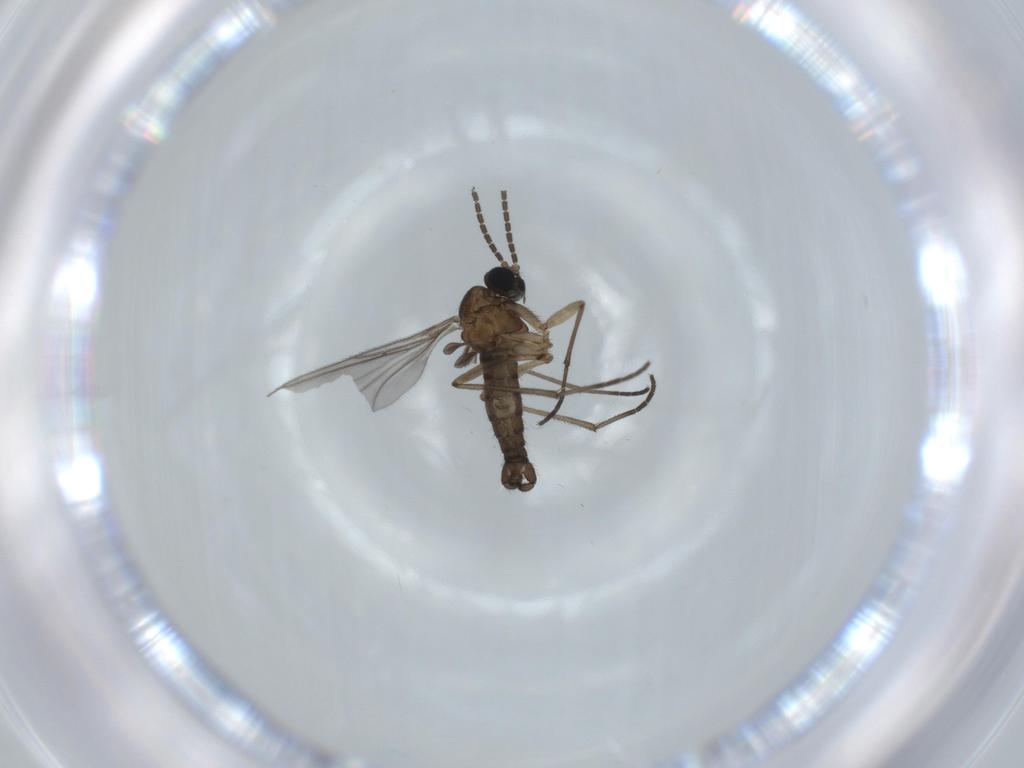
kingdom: Animalia
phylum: Arthropoda
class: Insecta
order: Diptera
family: Sciaridae
